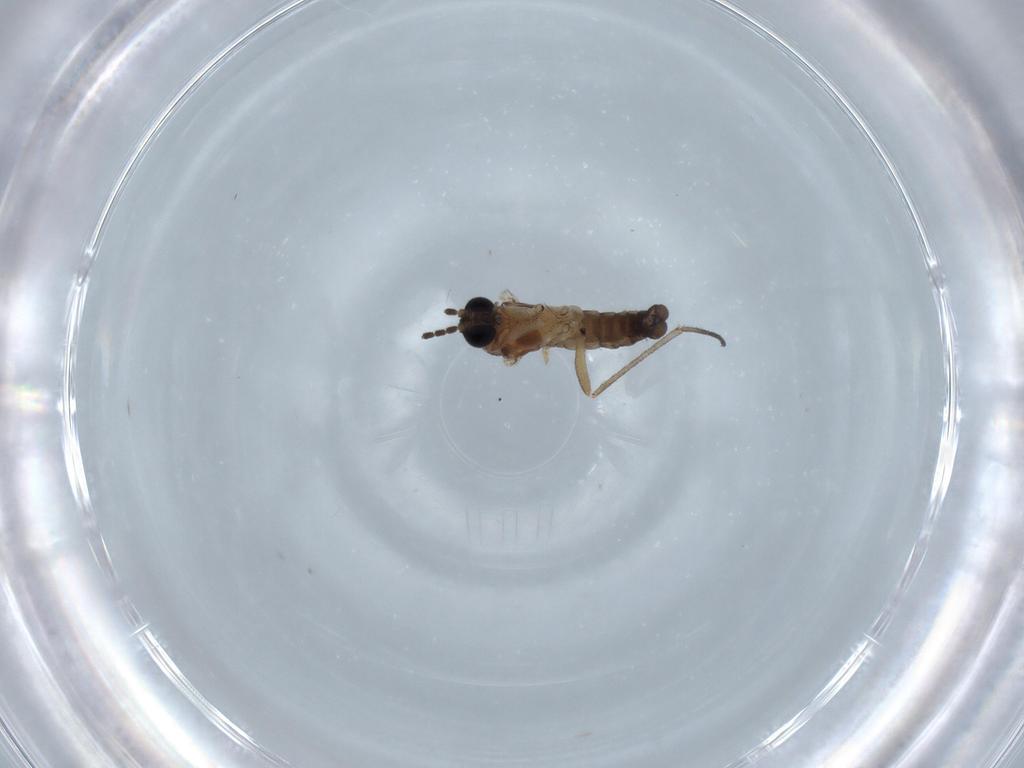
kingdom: Animalia
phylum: Arthropoda
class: Insecta
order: Diptera
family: Sciaridae
